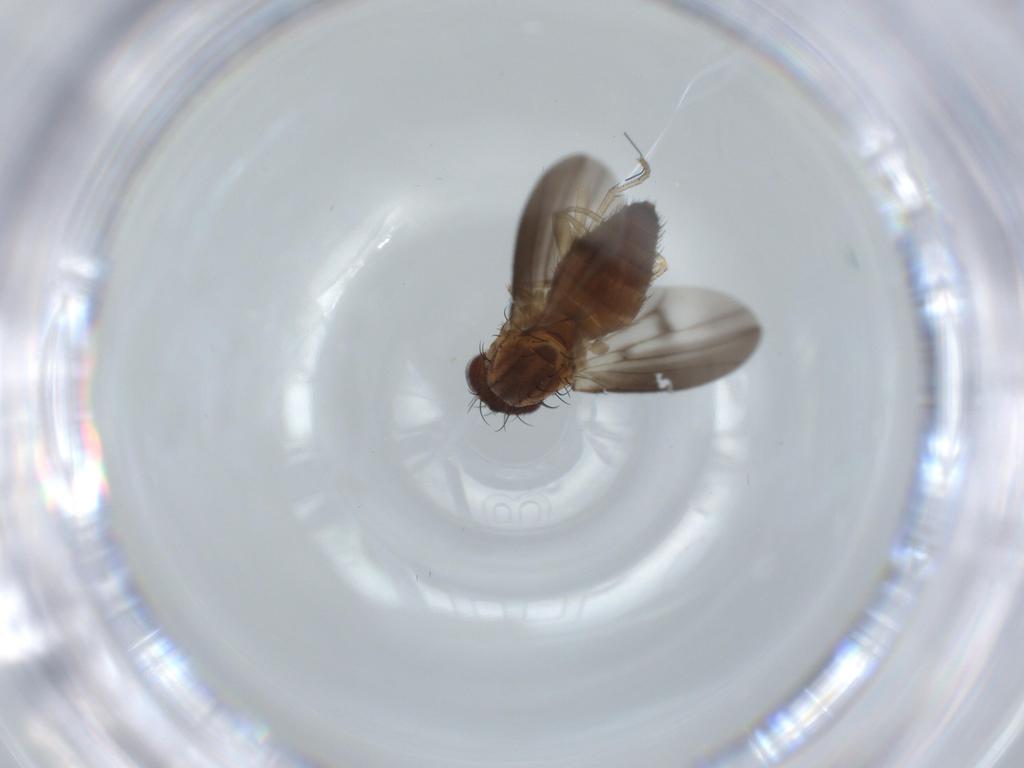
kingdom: Animalia
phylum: Arthropoda
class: Insecta
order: Diptera
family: Heleomyzidae
